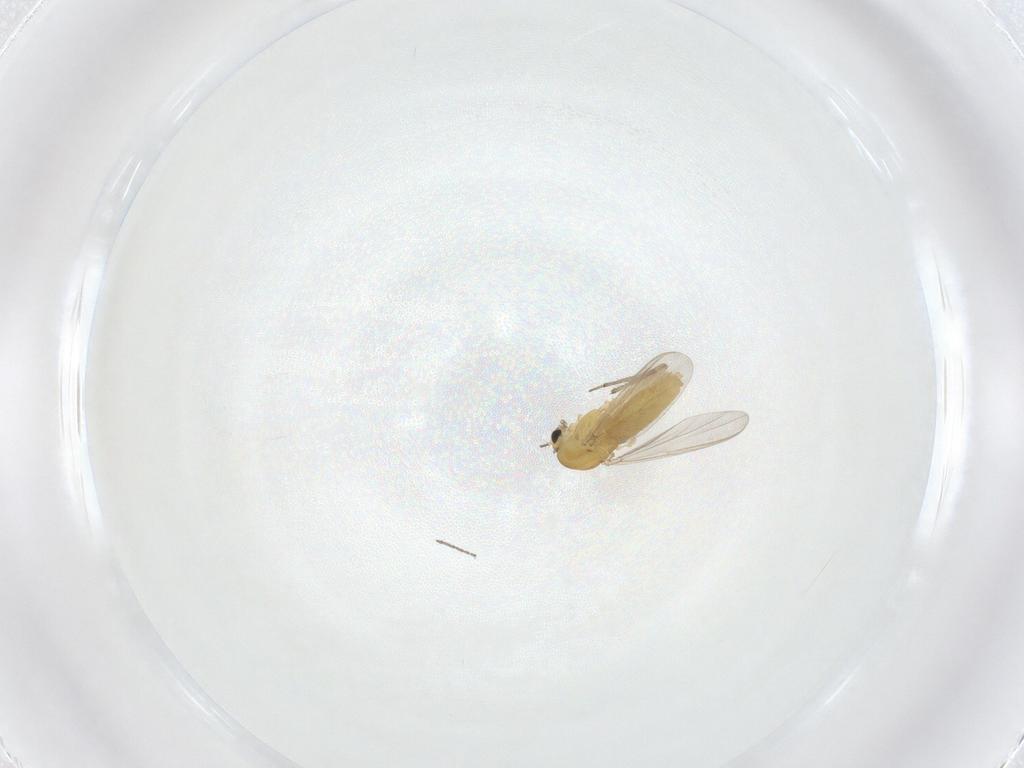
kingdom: Animalia
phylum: Arthropoda
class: Insecta
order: Diptera
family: Chironomidae
